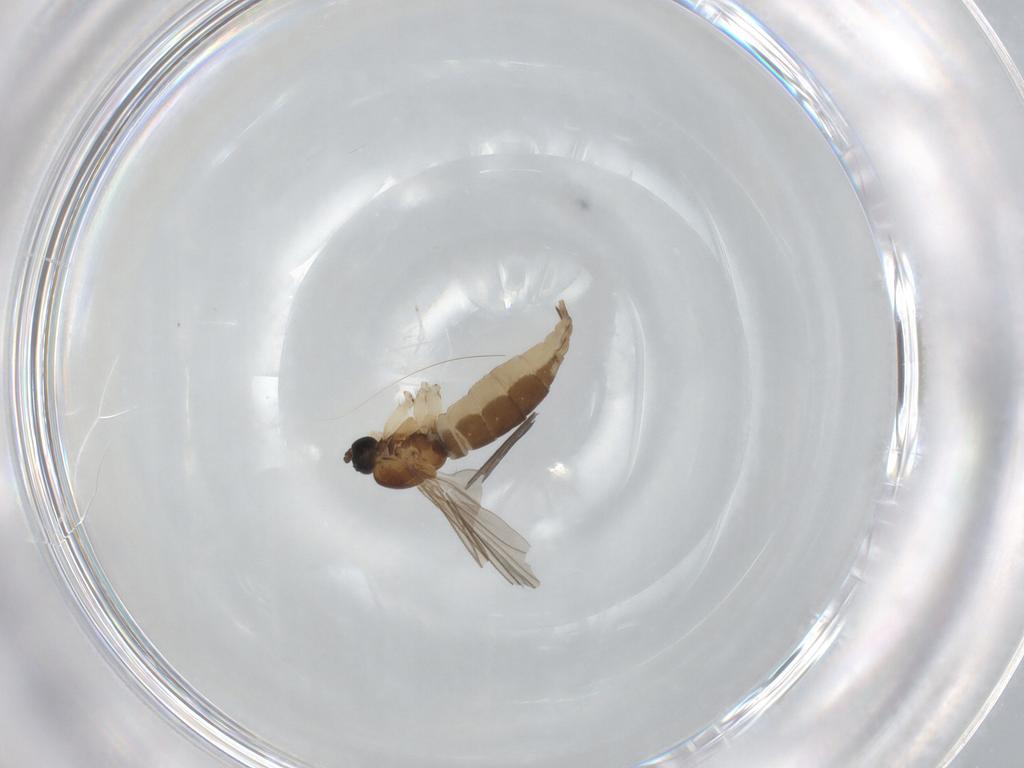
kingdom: Animalia
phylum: Arthropoda
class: Insecta
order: Diptera
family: Sciaridae
